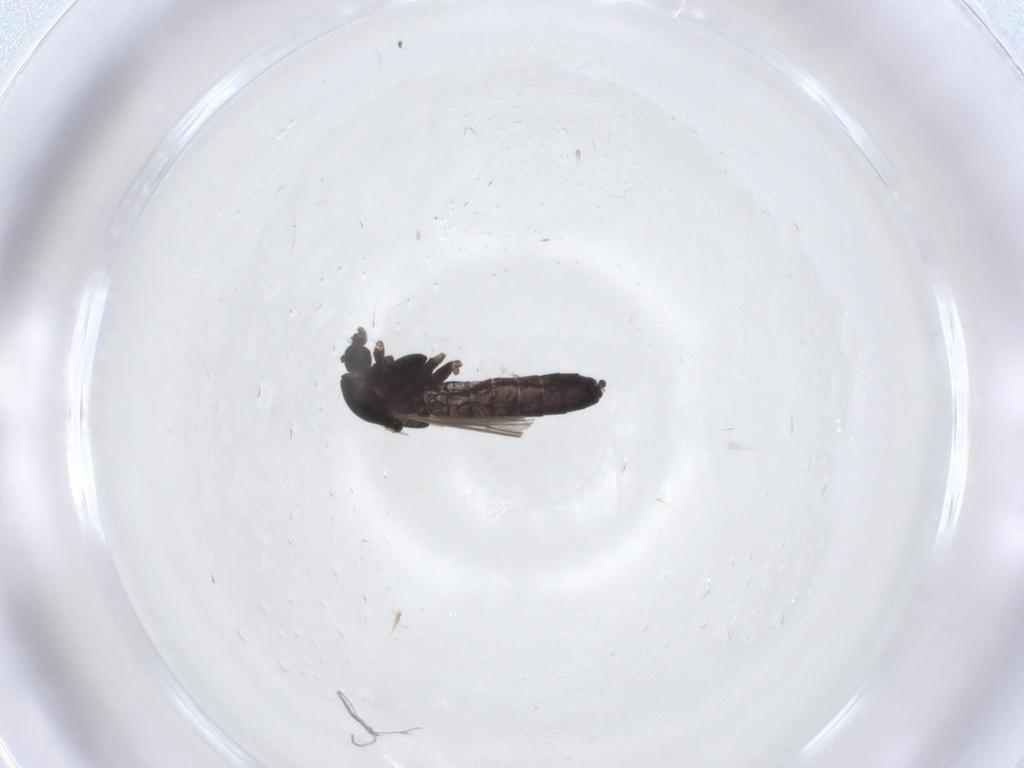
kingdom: Animalia
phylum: Arthropoda
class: Insecta
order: Diptera
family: Chironomidae
